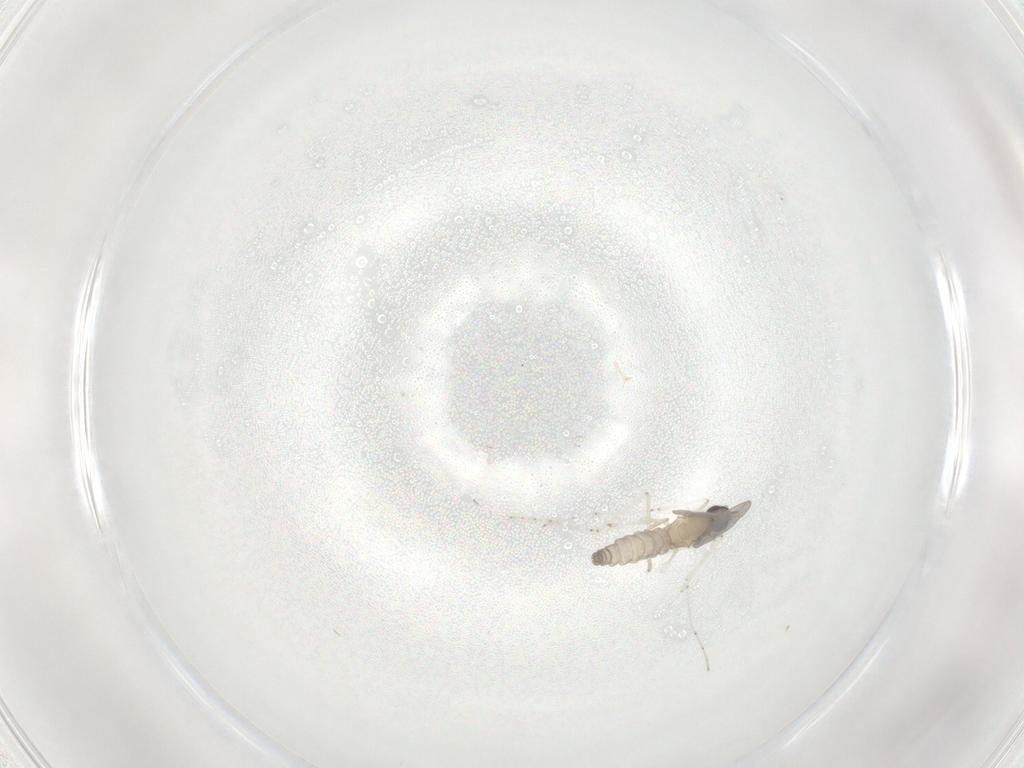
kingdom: Animalia
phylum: Arthropoda
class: Insecta
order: Diptera
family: Cecidomyiidae
